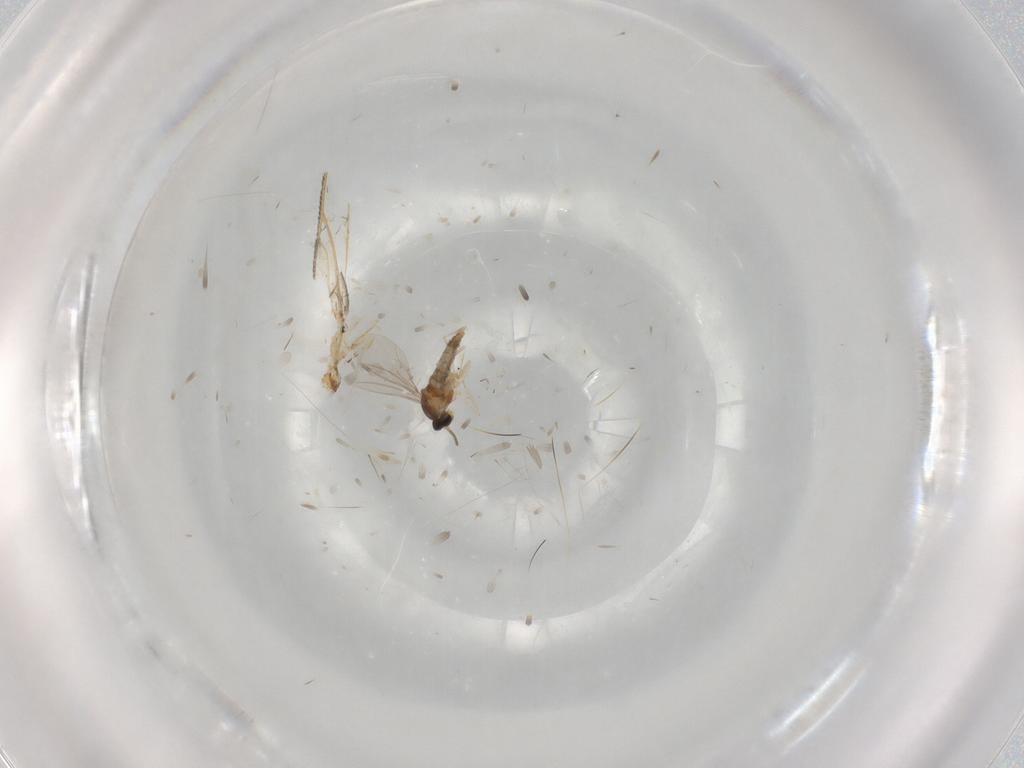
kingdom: Animalia
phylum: Arthropoda
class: Insecta
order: Diptera
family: Cecidomyiidae
